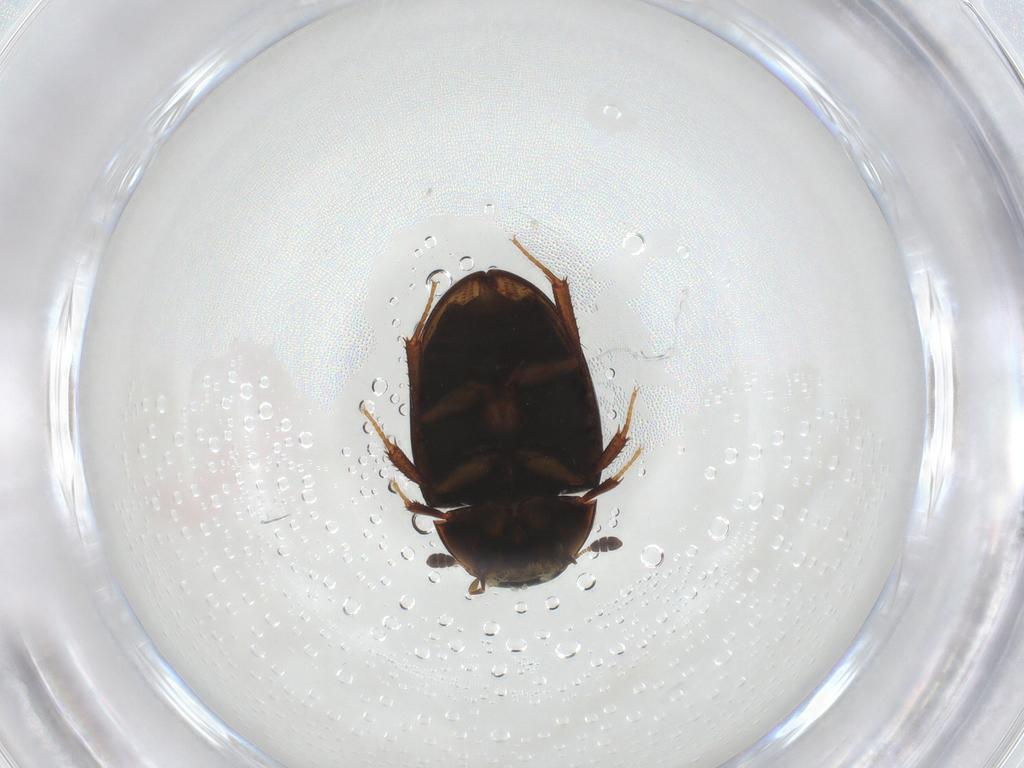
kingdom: Animalia
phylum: Arthropoda
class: Insecta
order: Coleoptera
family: Hydrophilidae
